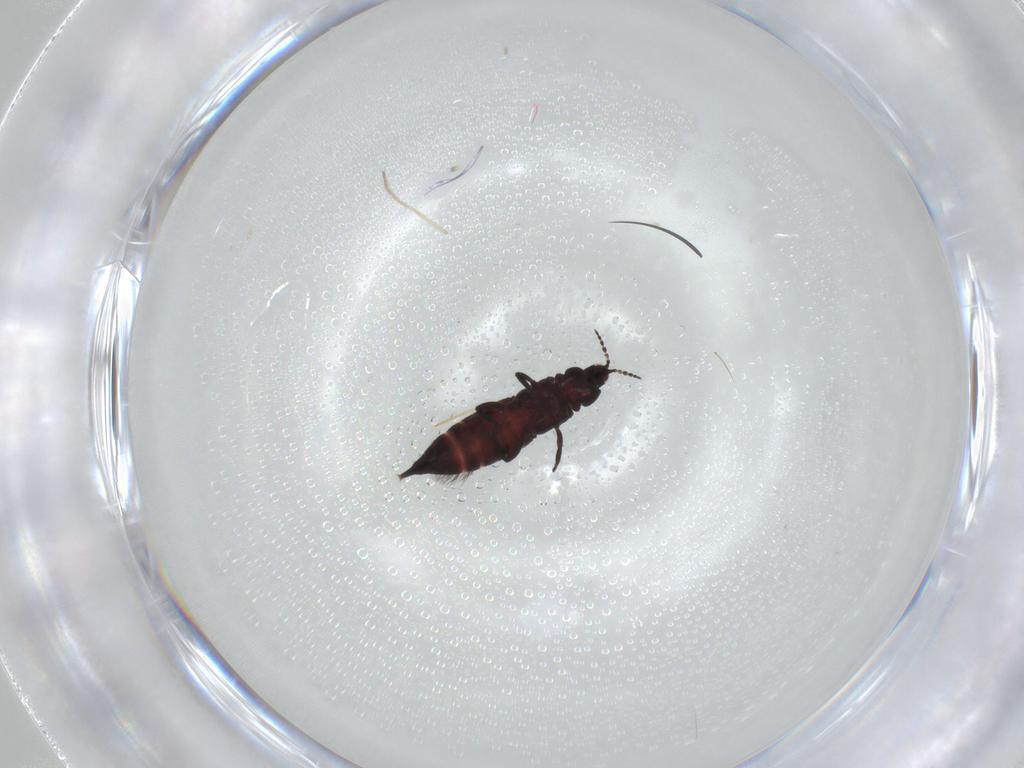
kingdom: Animalia
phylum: Arthropoda
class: Insecta
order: Thysanoptera
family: Phlaeothripidae
